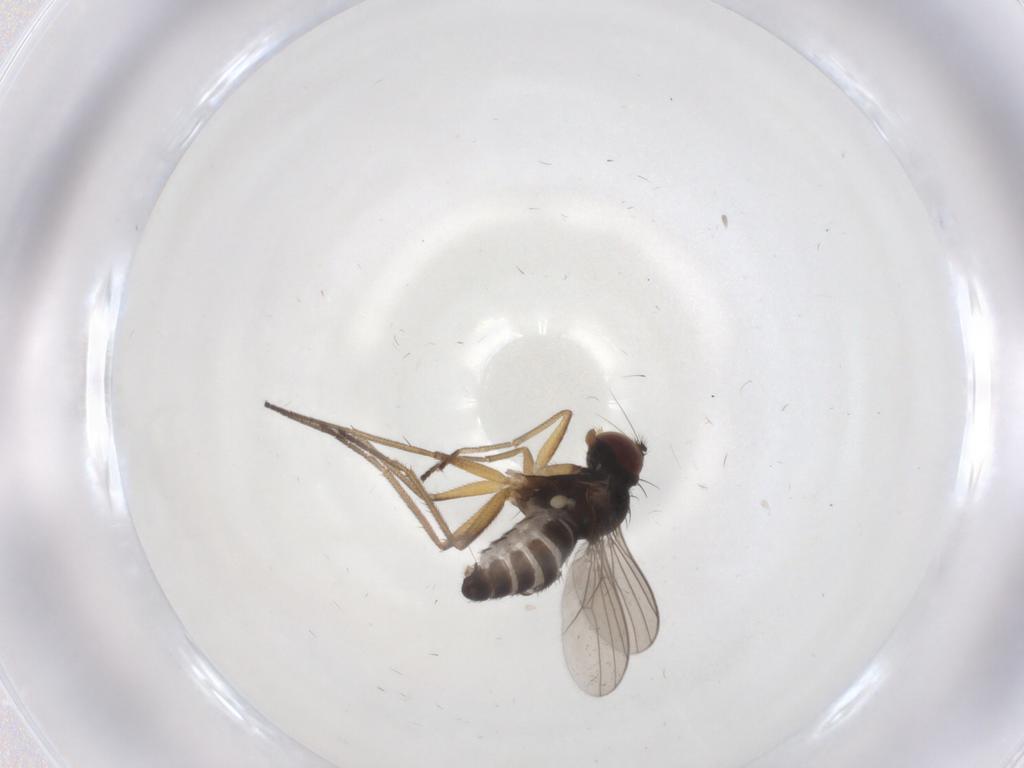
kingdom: Animalia
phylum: Arthropoda
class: Insecta
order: Diptera
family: Dolichopodidae
